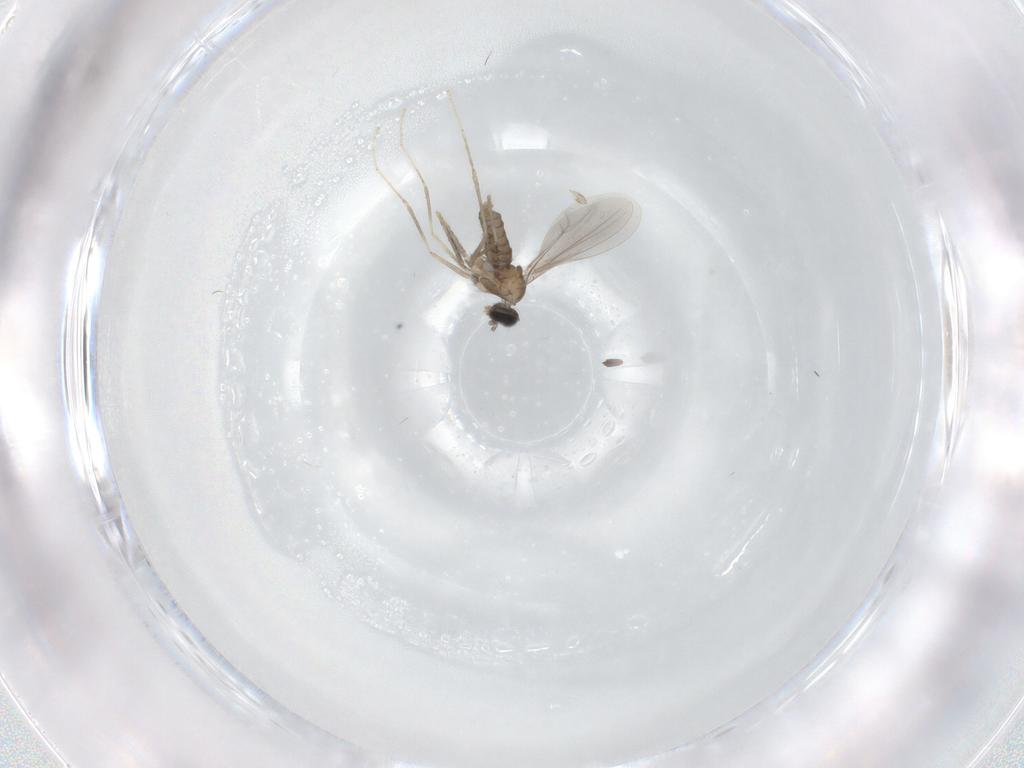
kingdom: Animalia
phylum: Arthropoda
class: Insecta
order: Diptera
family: Cecidomyiidae
